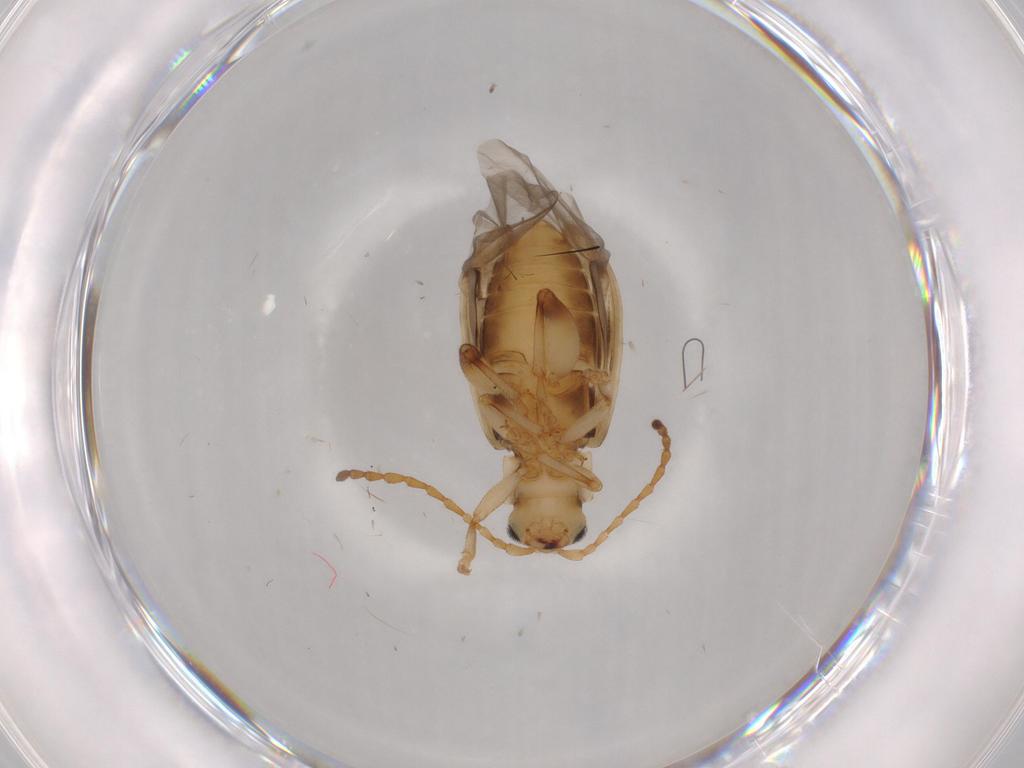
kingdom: Animalia
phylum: Arthropoda
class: Insecta
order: Coleoptera
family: Chrysomelidae
